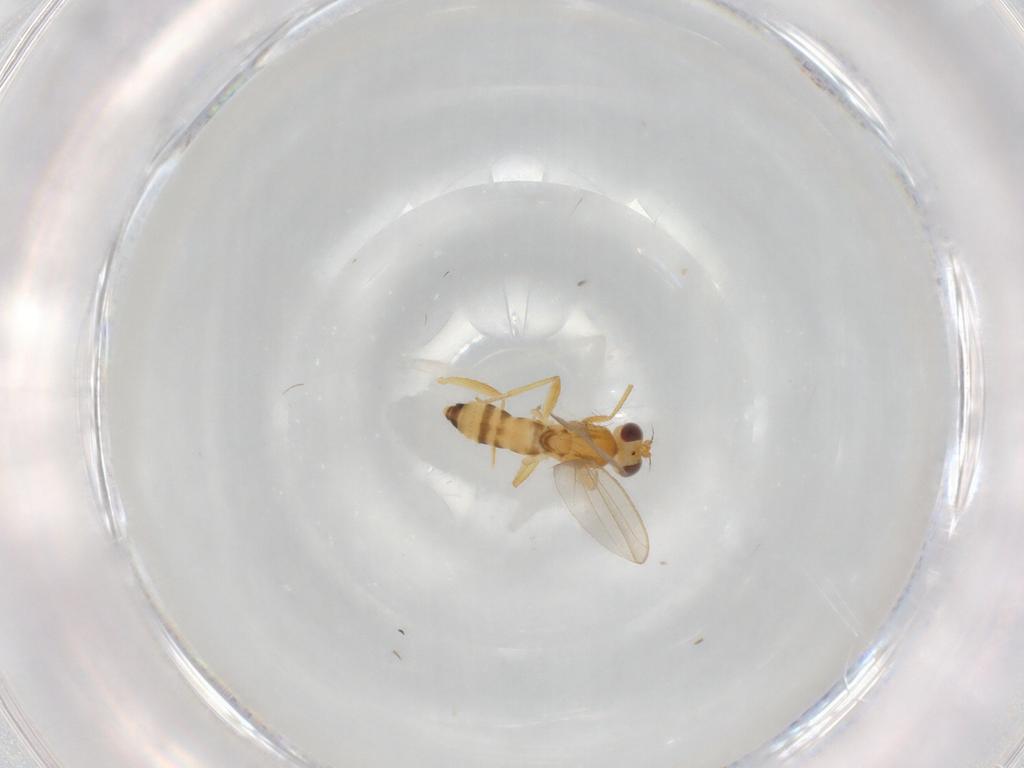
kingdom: Animalia
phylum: Arthropoda
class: Insecta
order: Diptera
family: Periscelididae
